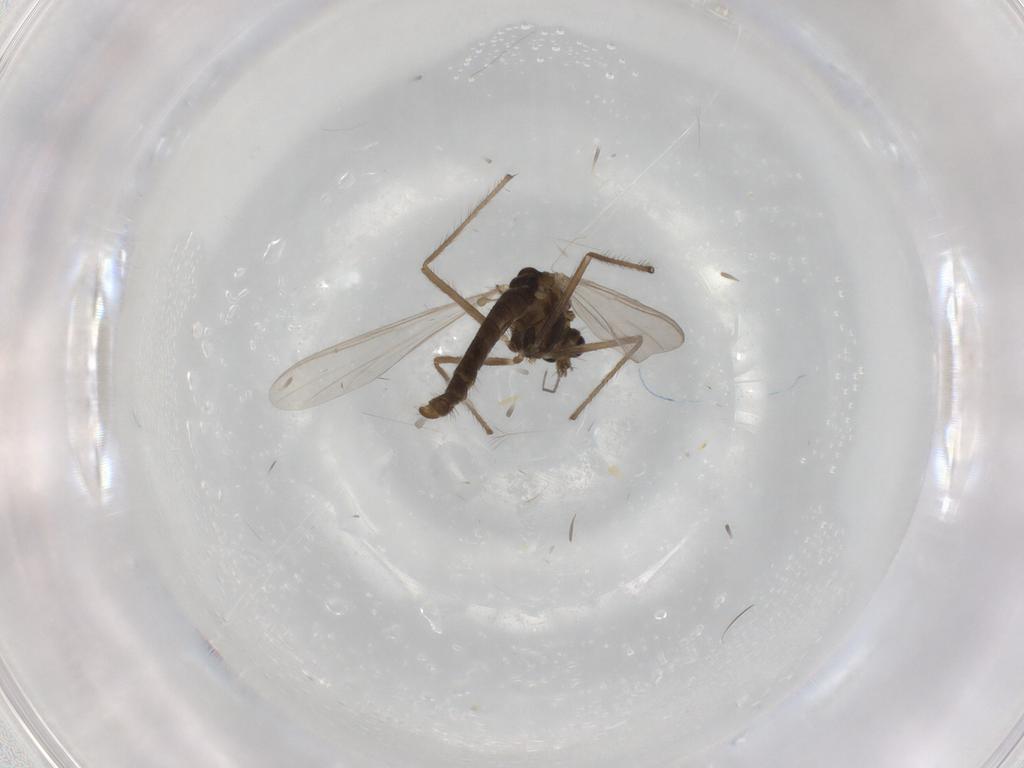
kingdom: Animalia
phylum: Arthropoda
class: Insecta
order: Diptera
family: Chironomidae
